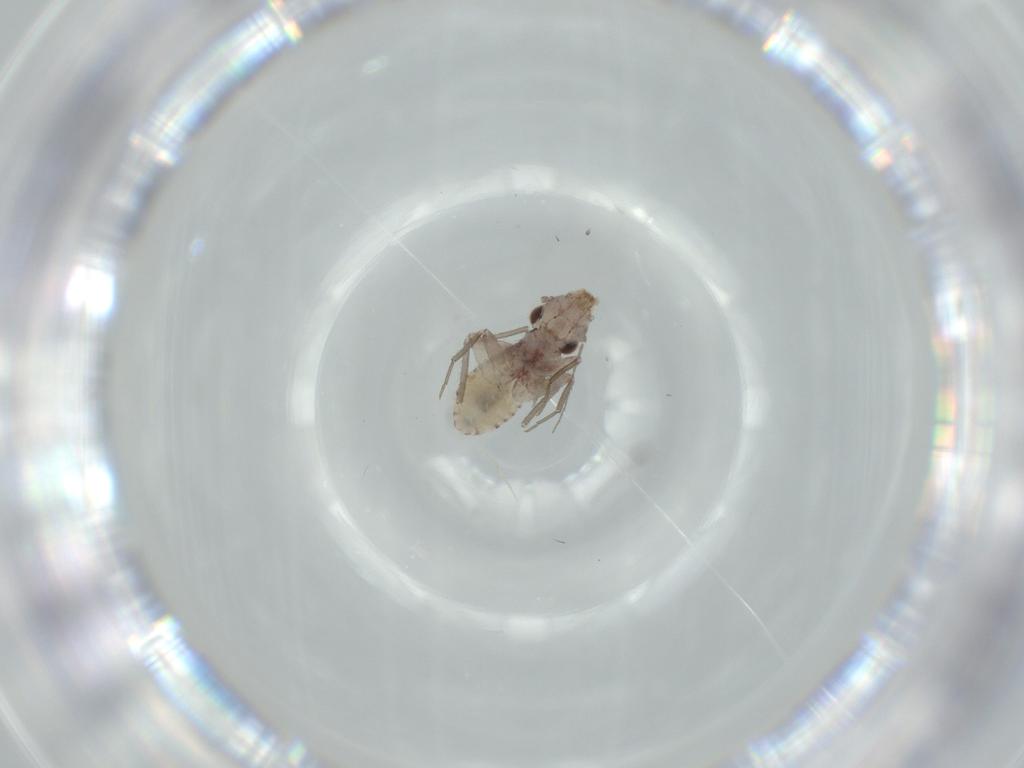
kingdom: Animalia
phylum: Arthropoda
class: Insecta
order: Psocodea
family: Lepidopsocidae
